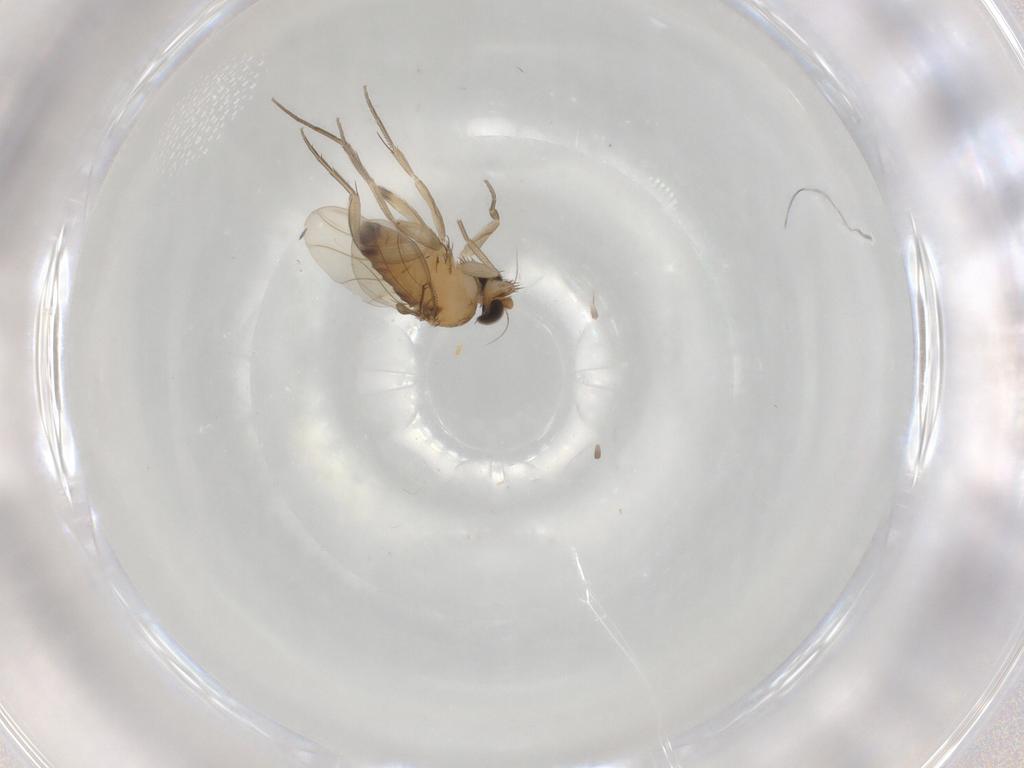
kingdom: Animalia
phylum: Arthropoda
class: Insecta
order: Diptera
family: Phoridae
